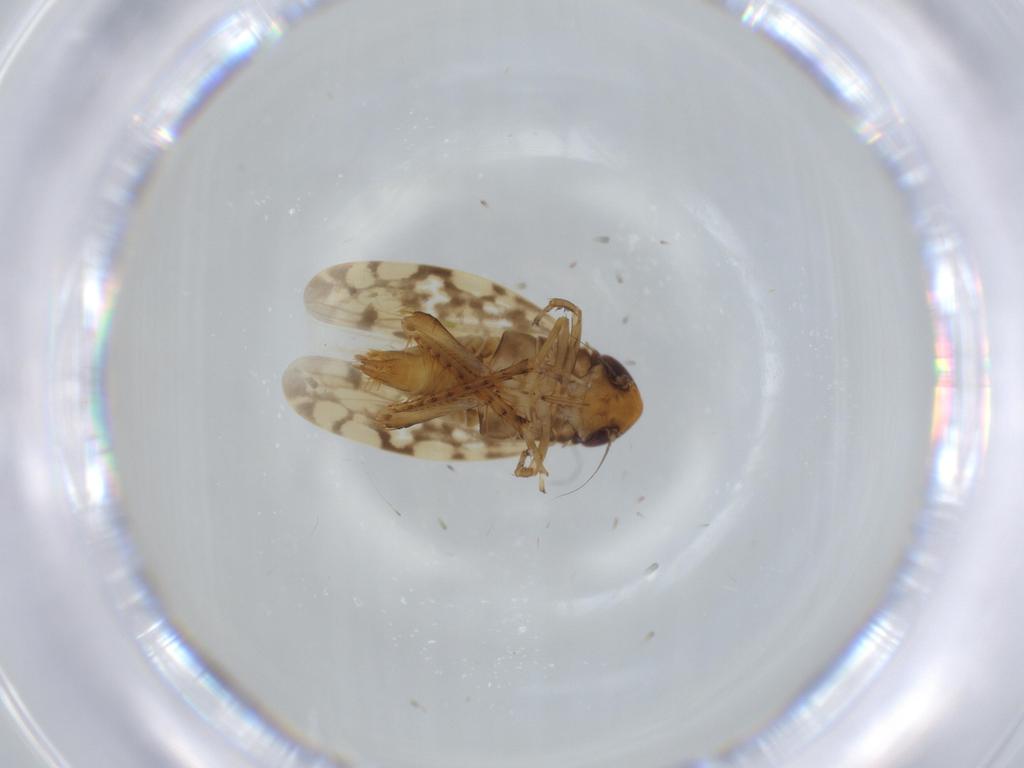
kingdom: Animalia
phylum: Arthropoda
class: Insecta
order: Hemiptera
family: Cicadellidae
